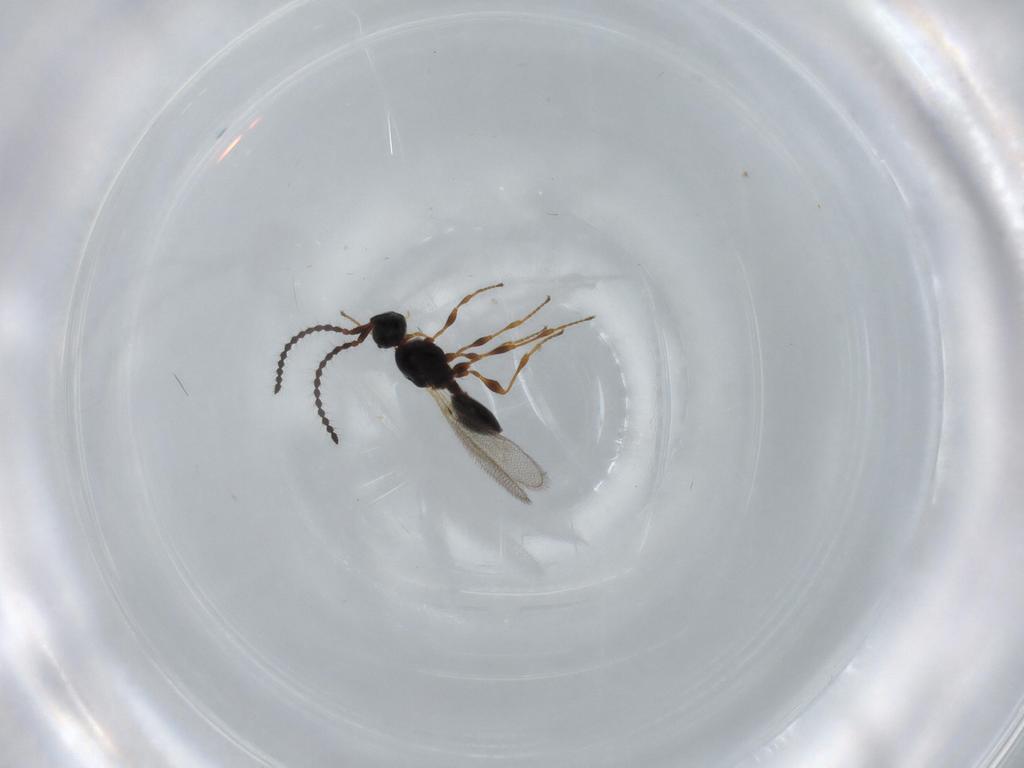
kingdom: Animalia
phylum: Arthropoda
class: Insecta
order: Hymenoptera
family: Diapriidae
